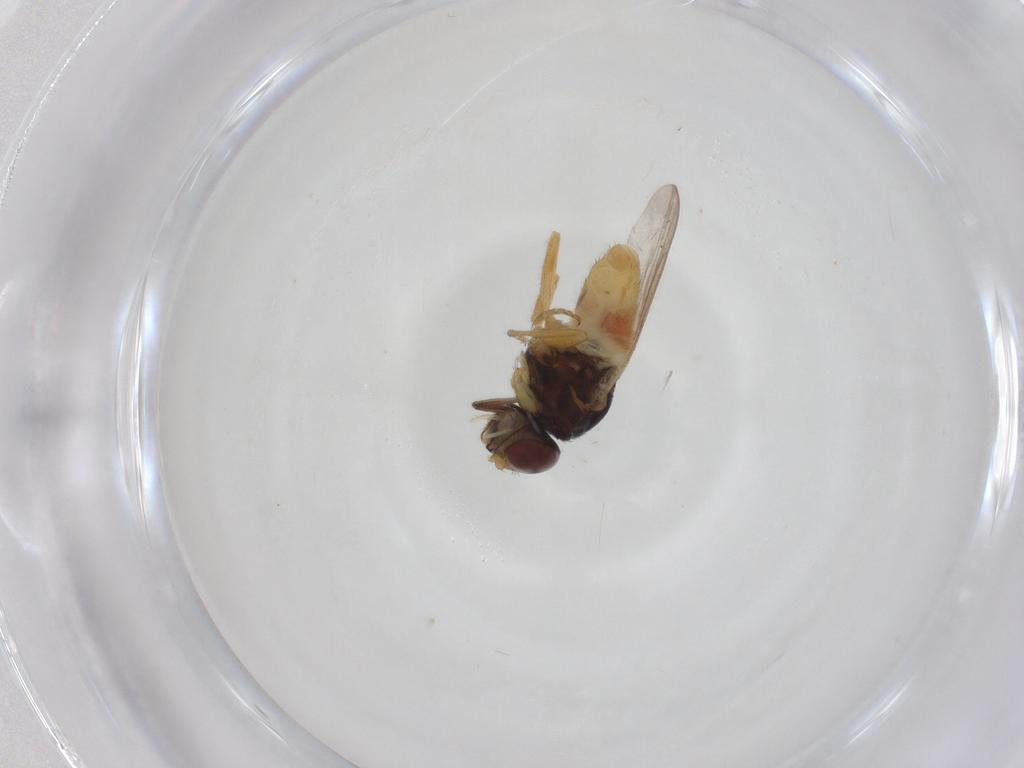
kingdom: Animalia
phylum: Arthropoda
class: Insecta
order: Diptera
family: Chloropidae
